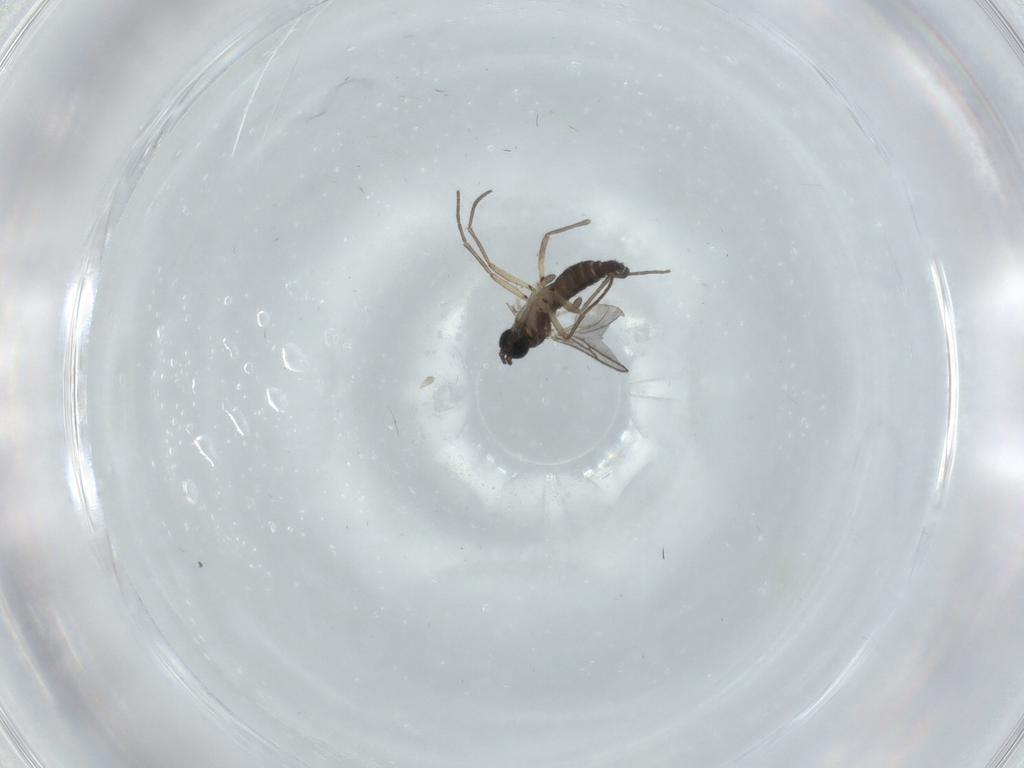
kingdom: Animalia
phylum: Arthropoda
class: Insecta
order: Diptera
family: Sciaridae
